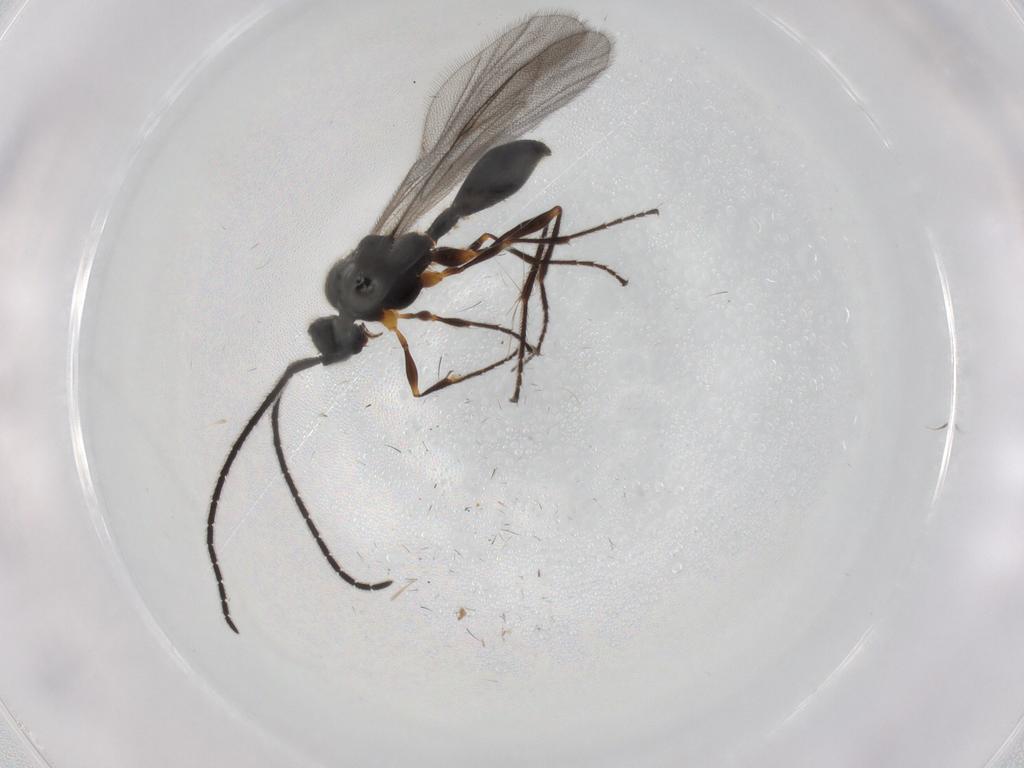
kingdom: Animalia
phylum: Arthropoda
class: Insecta
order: Hymenoptera
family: Diapriidae
